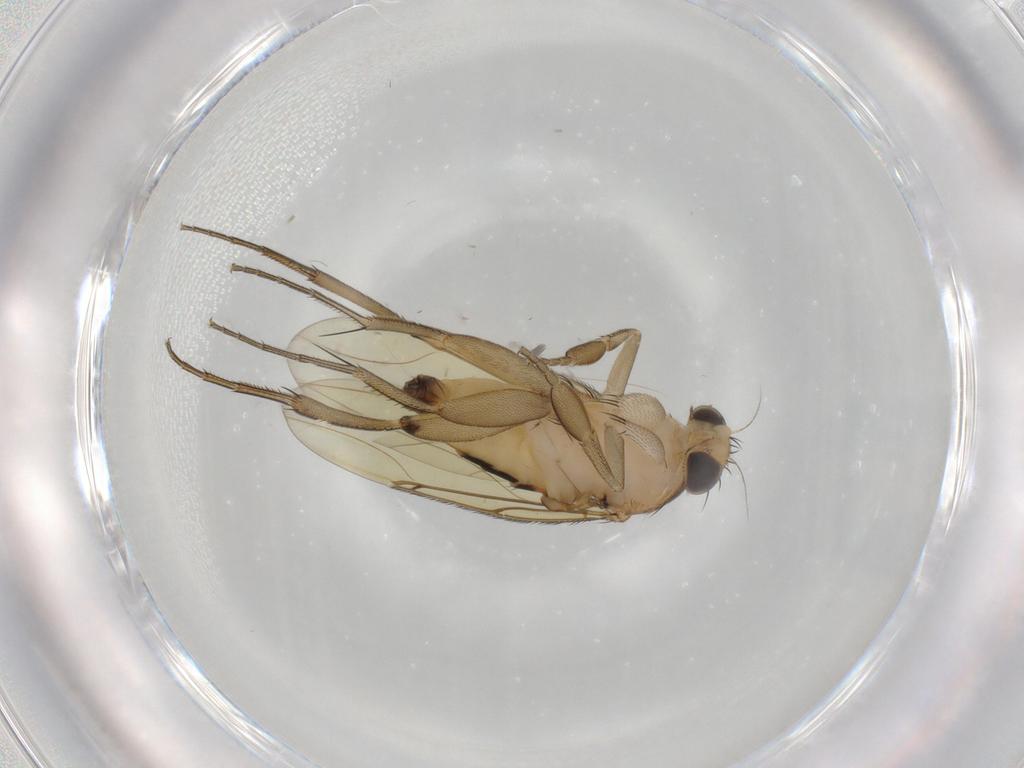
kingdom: Animalia
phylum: Arthropoda
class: Insecta
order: Diptera
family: Phoridae
